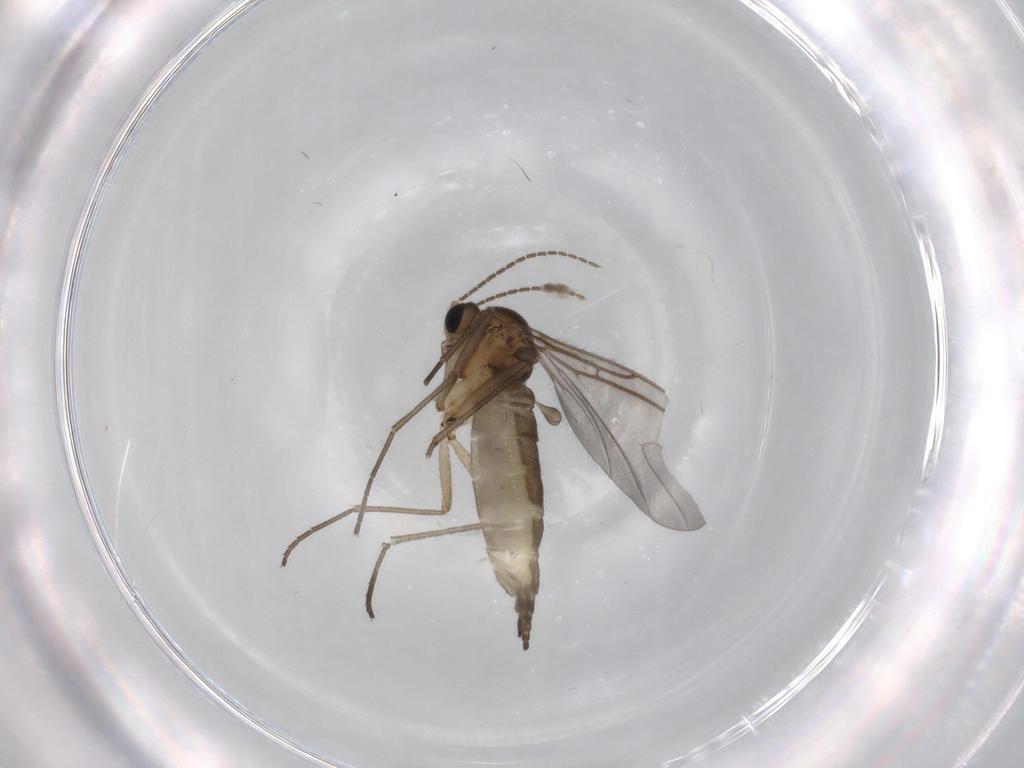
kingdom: Animalia
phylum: Arthropoda
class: Insecta
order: Diptera
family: Sciaridae
